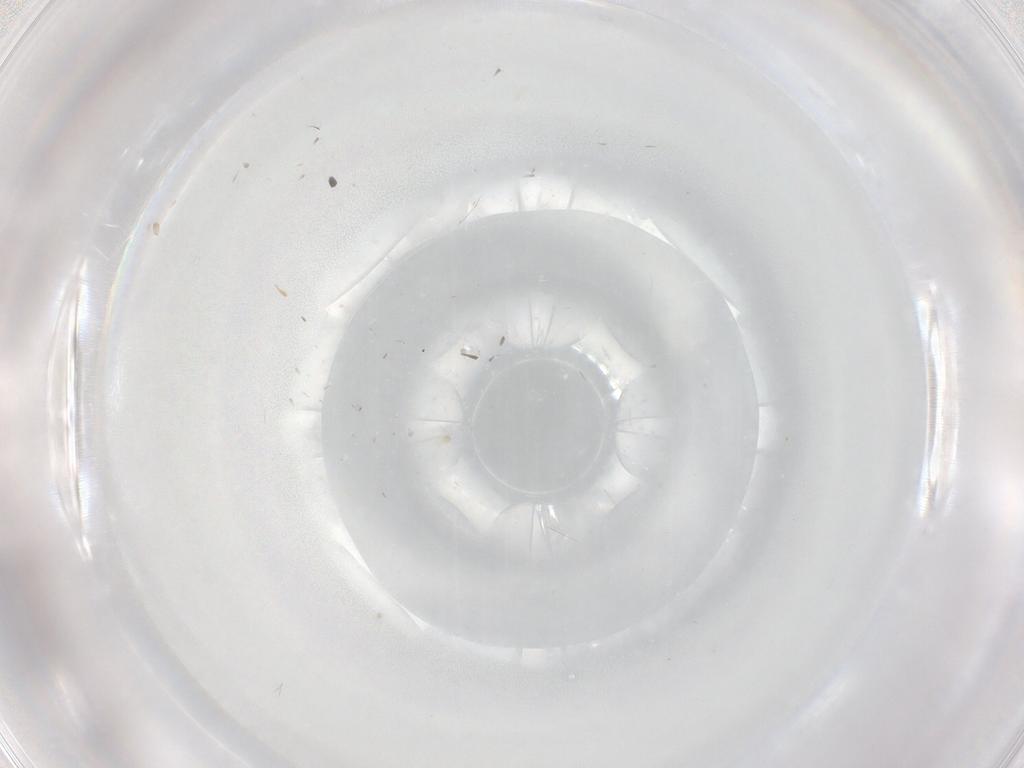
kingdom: Animalia
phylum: Arthropoda
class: Insecta
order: Diptera
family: Cecidomyiidae
